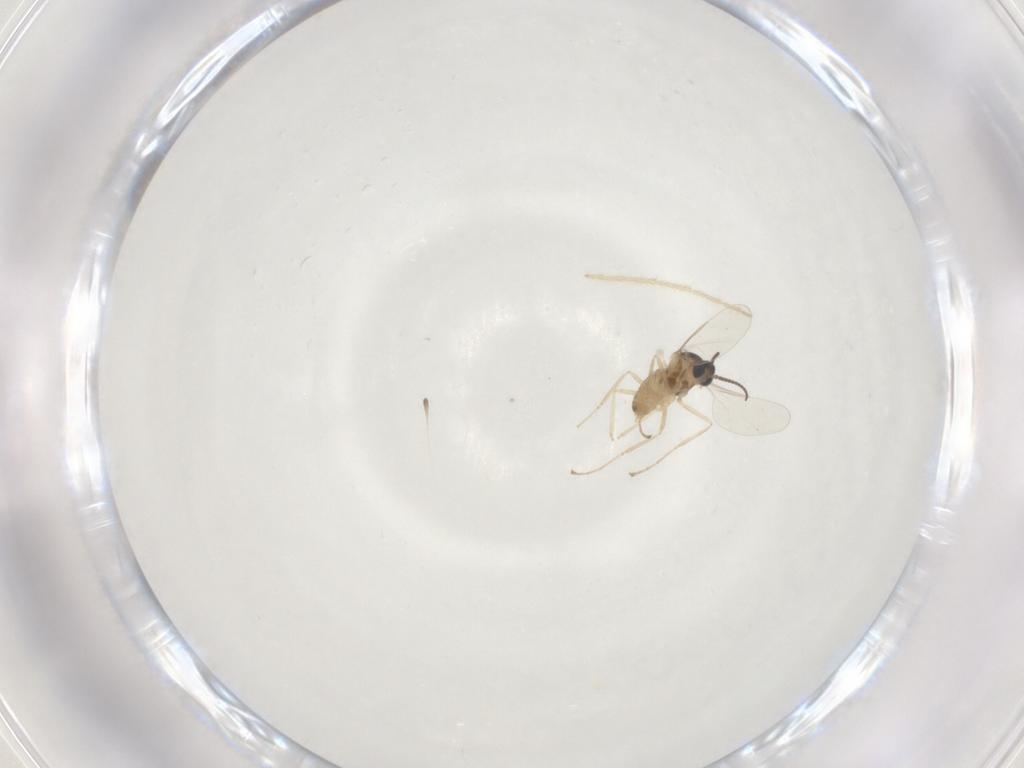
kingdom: Animalia
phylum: Arthropoda
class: Insecta
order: Diptera
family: Cecidomyiidae
